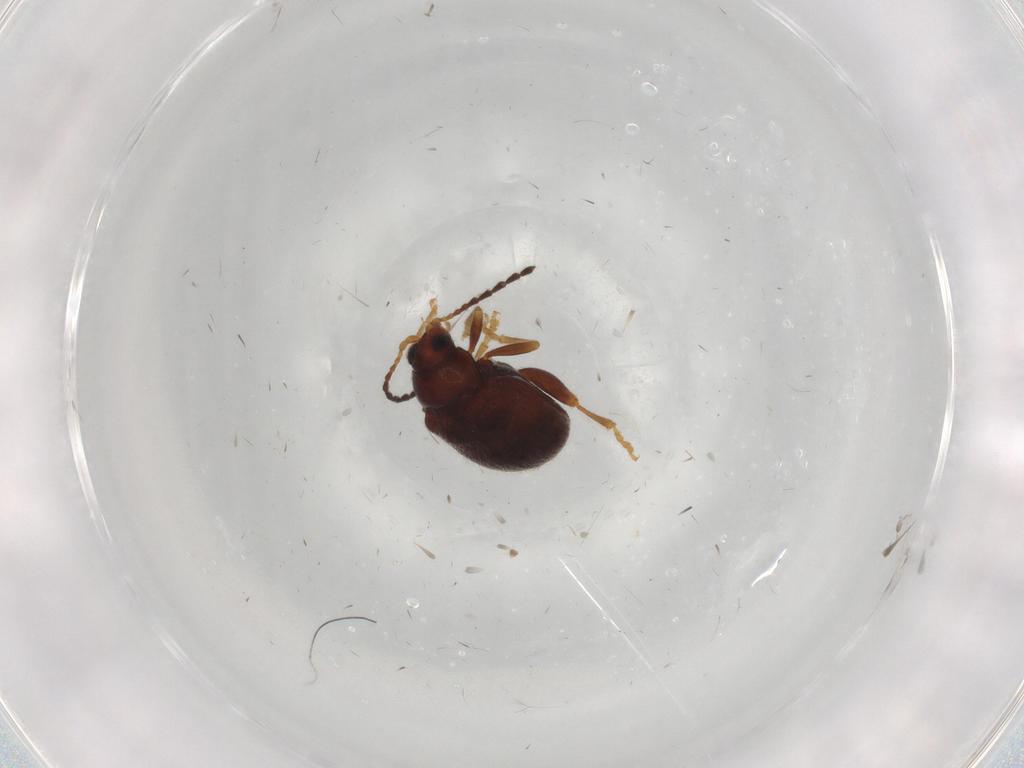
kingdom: Animalia
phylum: Arthropoda
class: Insecta
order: Coleoptera
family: Chrysomelidae
